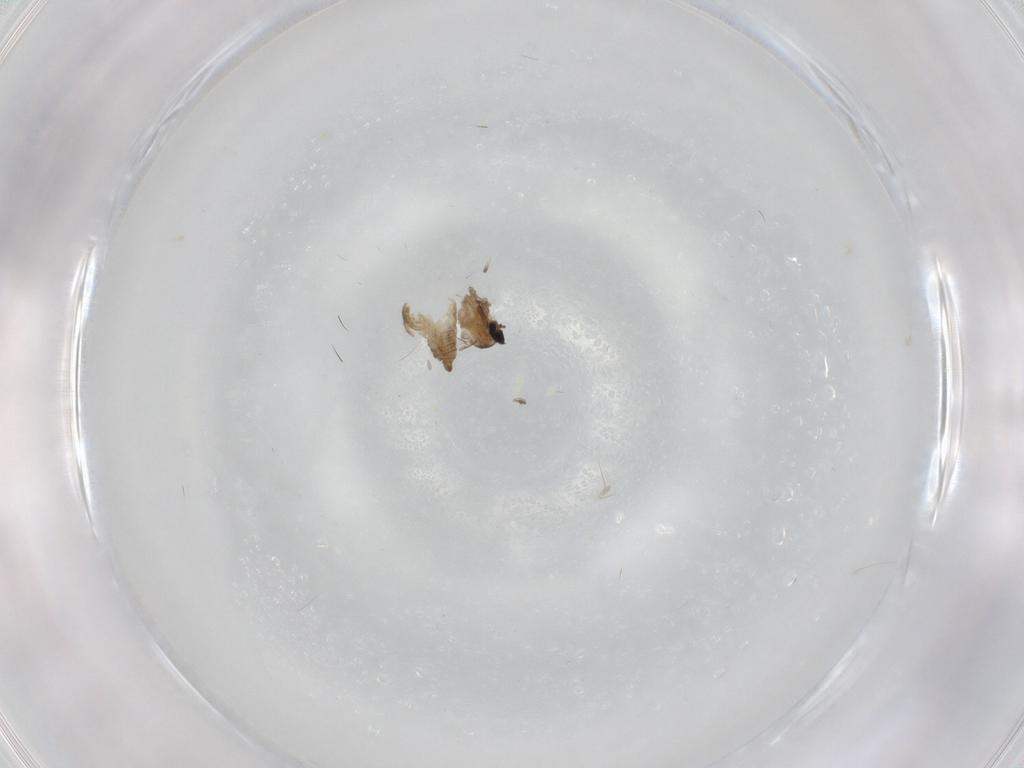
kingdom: Animalia
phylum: Arthropoda
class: Insecta
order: Diptera
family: Cecidomyiidae
